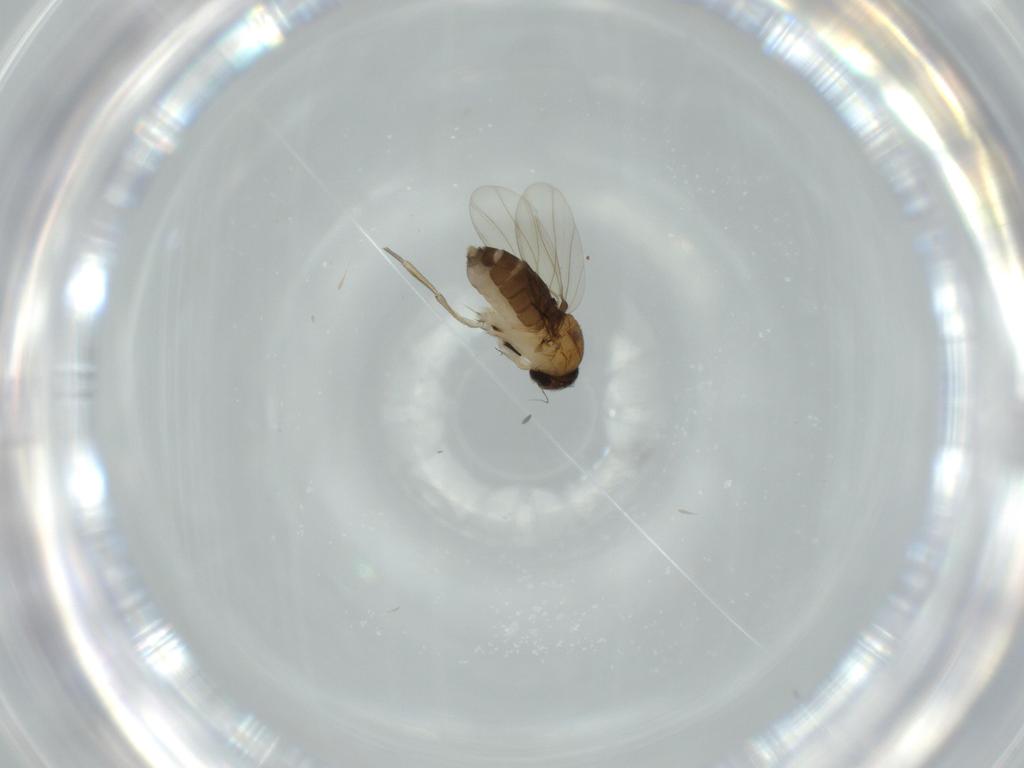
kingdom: Animalia
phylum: Arthropoda
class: Insecta
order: Diptera
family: Phoridae
